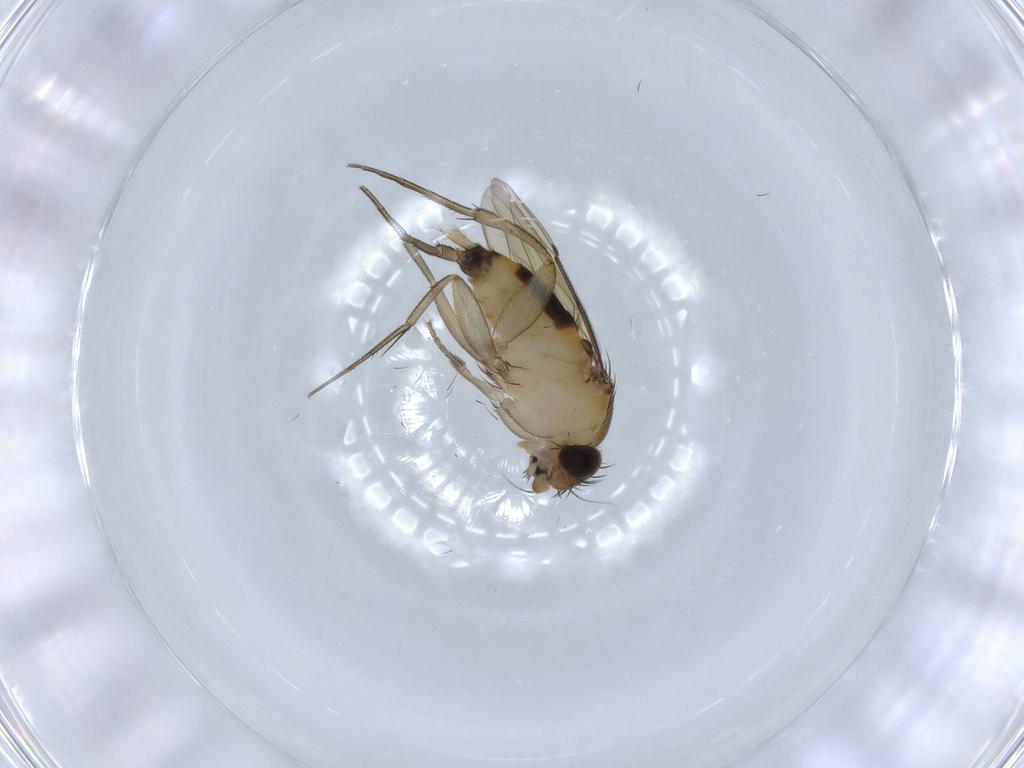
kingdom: Animalia
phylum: Arthropoda
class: Insecta
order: Diptera
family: Phoridae
